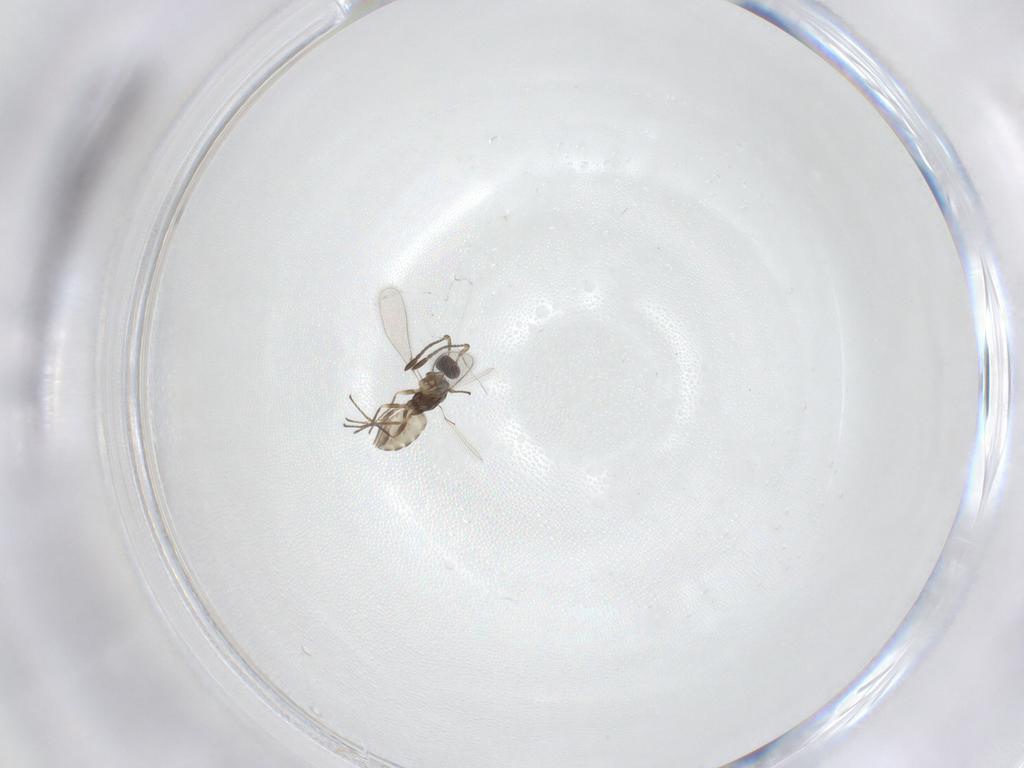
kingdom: Animalia
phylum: Arthropoda
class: Insecta
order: Hymenoptera
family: Mymaridae
